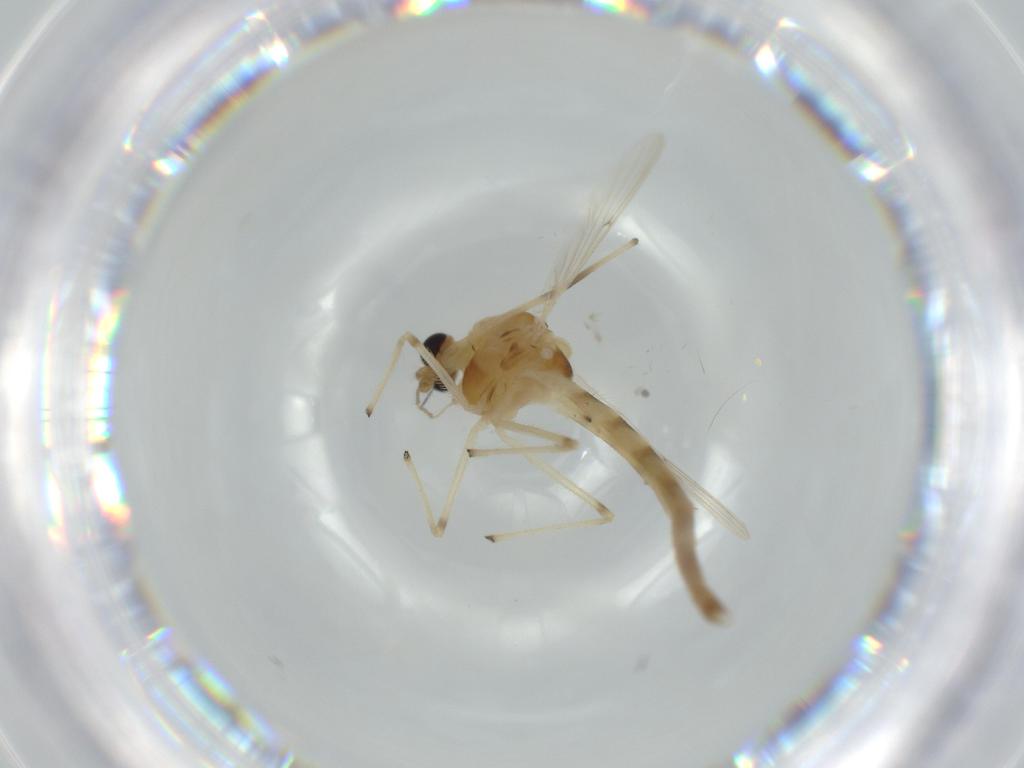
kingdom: Animalia
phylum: Arthropoda
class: Insecta
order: Diptera
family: Chironomidae
